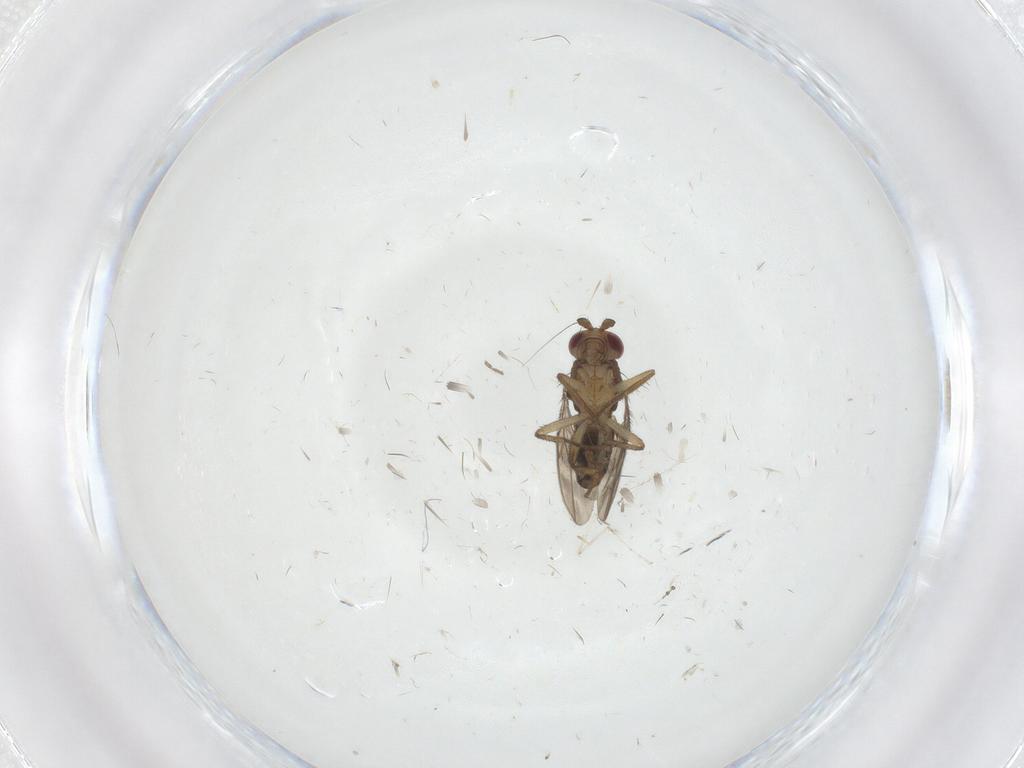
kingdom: Animalia
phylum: Arthropoda
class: Insecta
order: Diptera
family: Sphaeroceridae
